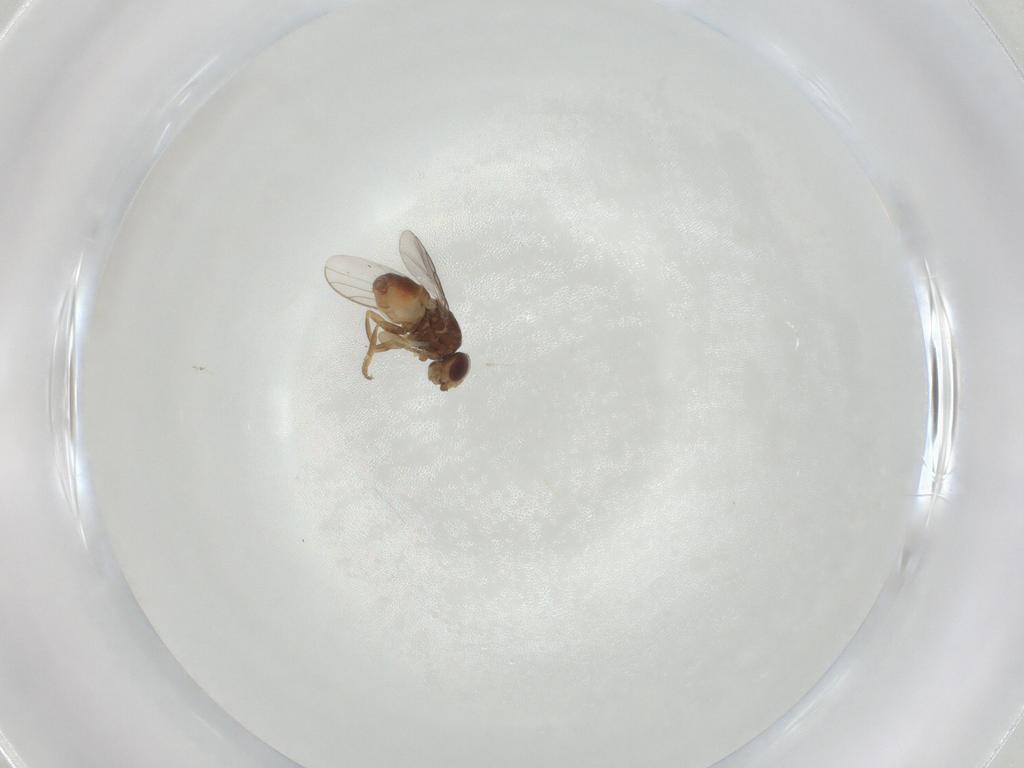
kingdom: Animalia
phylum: Arthropoda
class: Insecta
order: Diptera
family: Chloropidae
